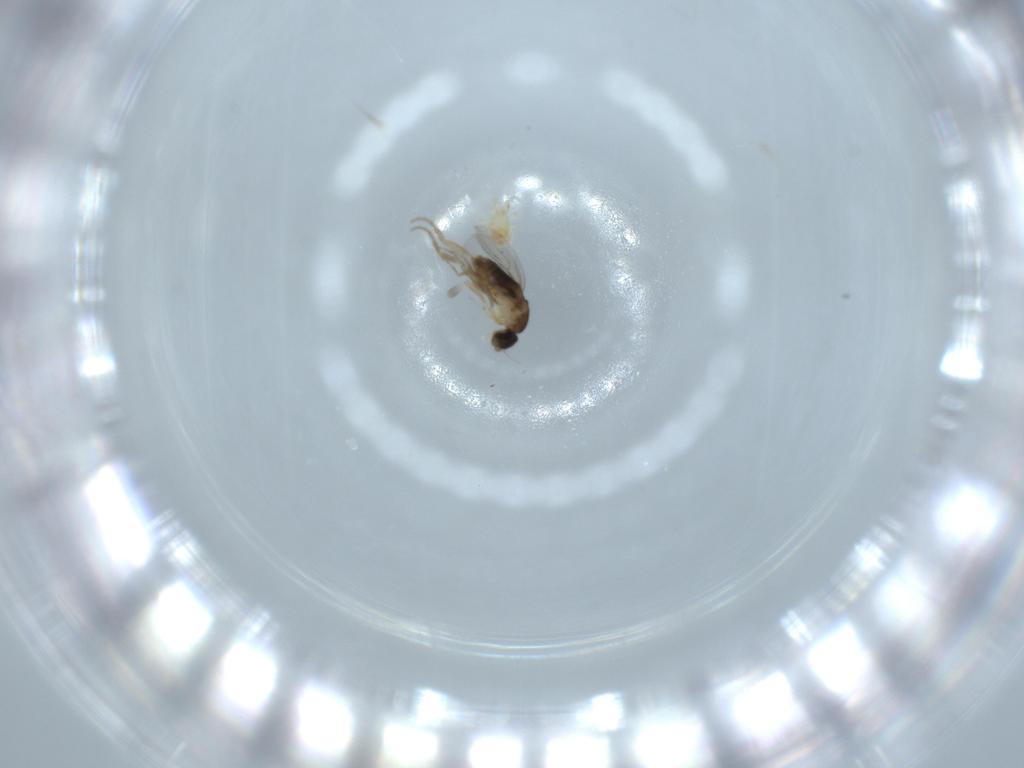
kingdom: Animalia
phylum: Arthropoda
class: Insecta
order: Diptera
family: Phoridae
